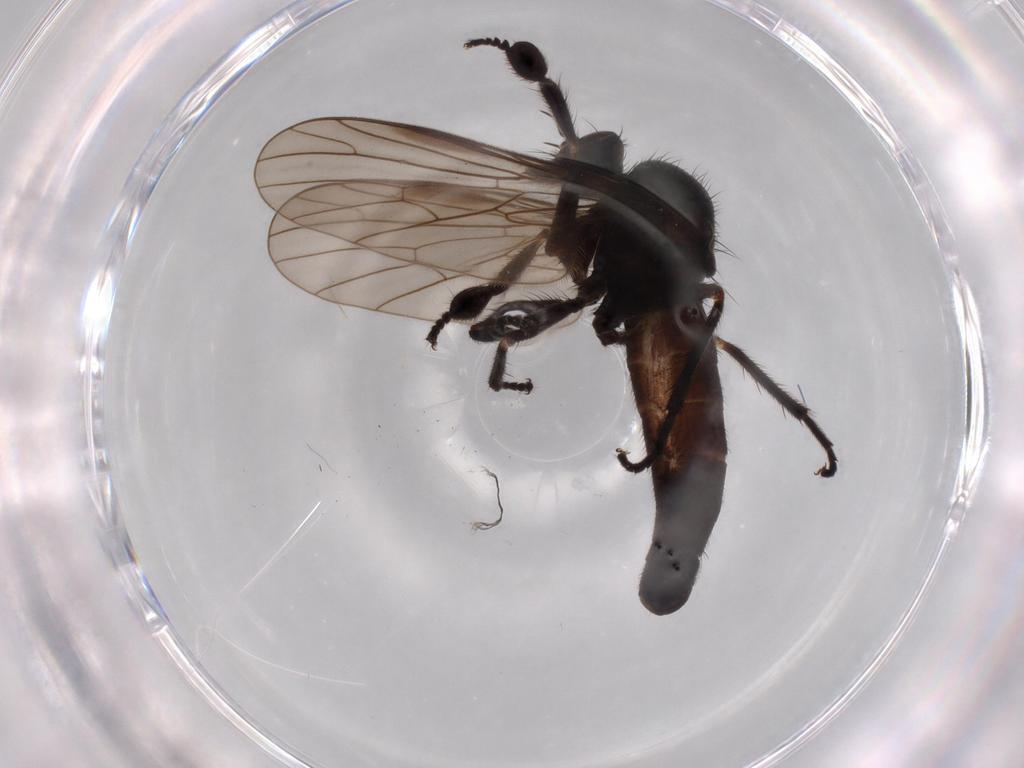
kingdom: Animalia
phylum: Arthropoda
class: Insecta
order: Diptera
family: Empididae
